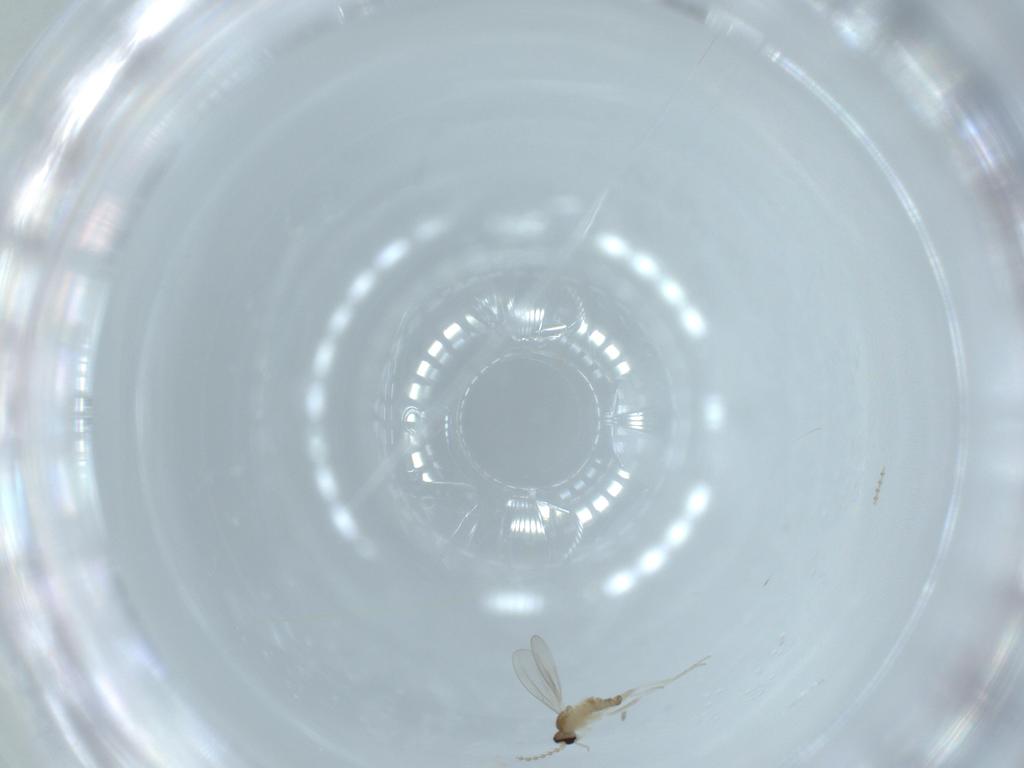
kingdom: Animalia
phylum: Arthropoda
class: Insecta
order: Diptera
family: Cecidomyiidae
